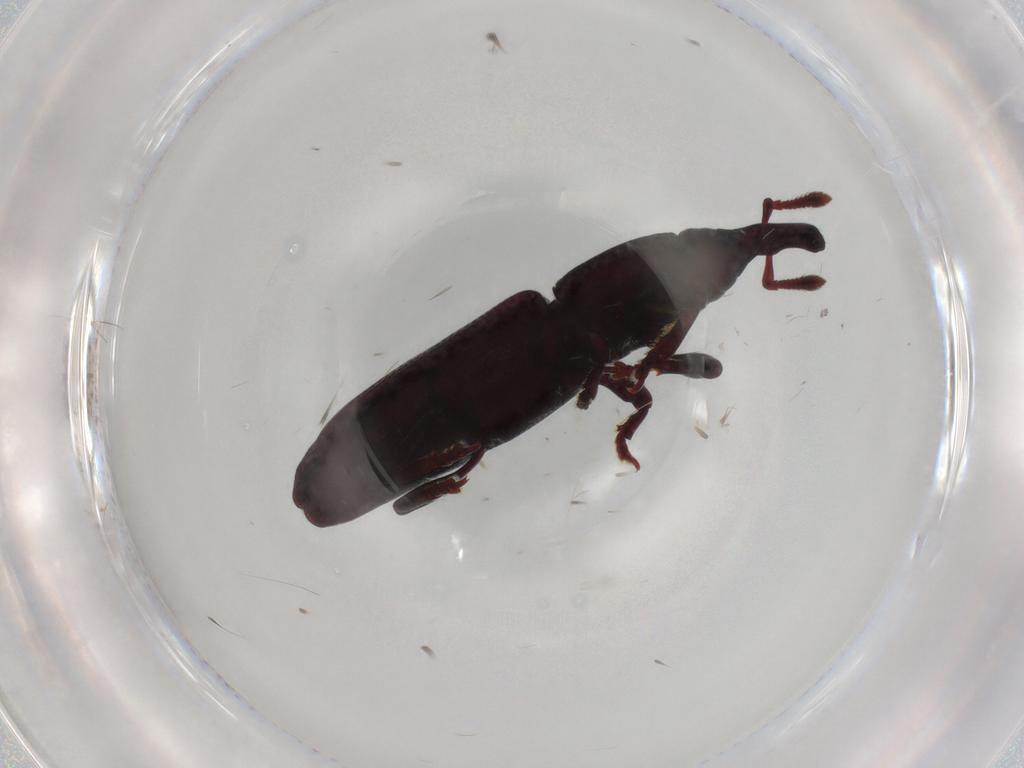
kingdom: Animalia
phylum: Arthropoda
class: Insecta
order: Coleoptera
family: Curculionidae
